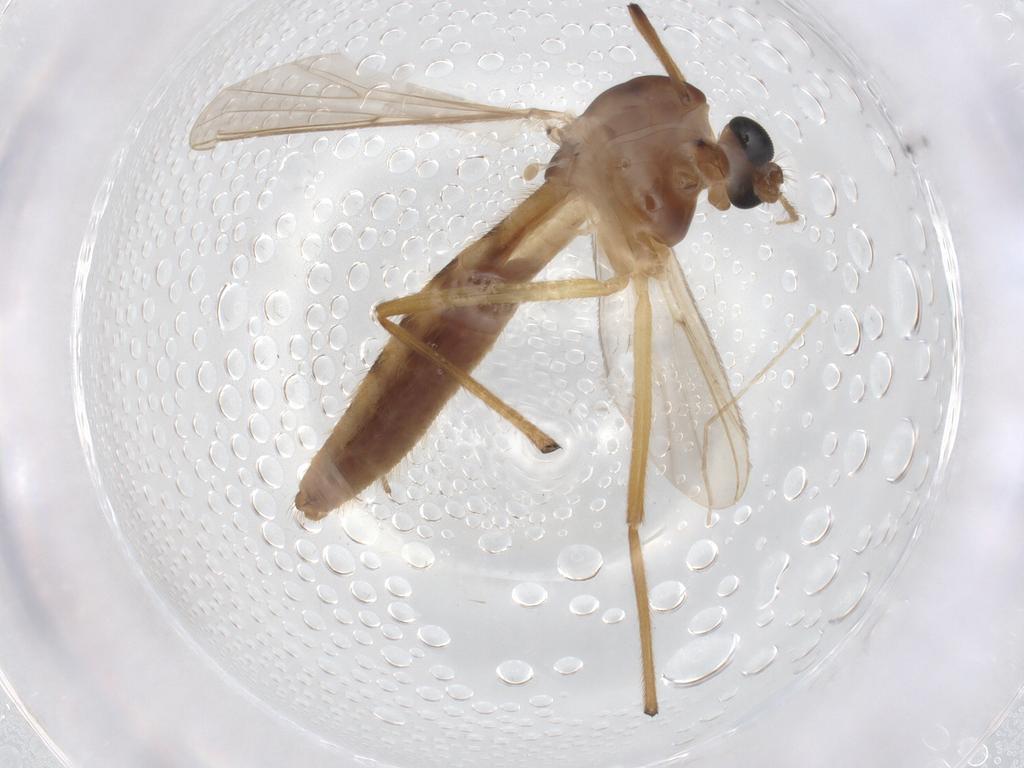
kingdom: Animalia
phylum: Arthropoda
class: Insecta
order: Diptera
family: Chironomidae
